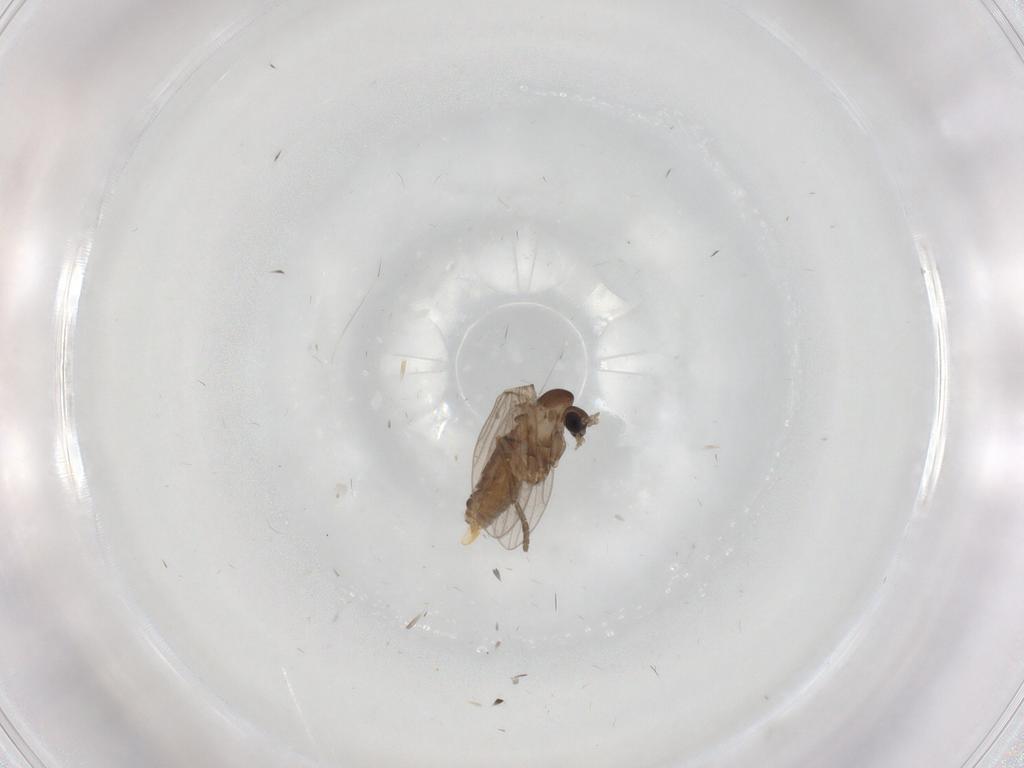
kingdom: Animalia
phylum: Arthropoda
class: Insecta
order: Diptera
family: Psychodidae
